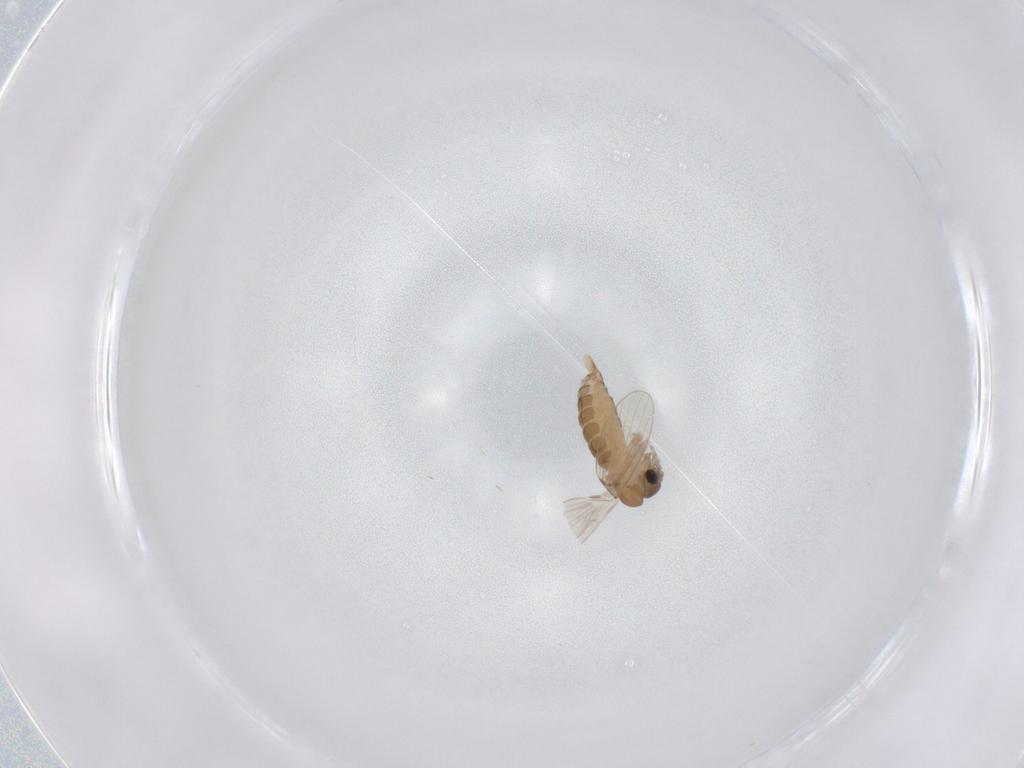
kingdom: Animalia
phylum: Arthropoda
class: Insecta
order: Diptera
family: Sciaridae
